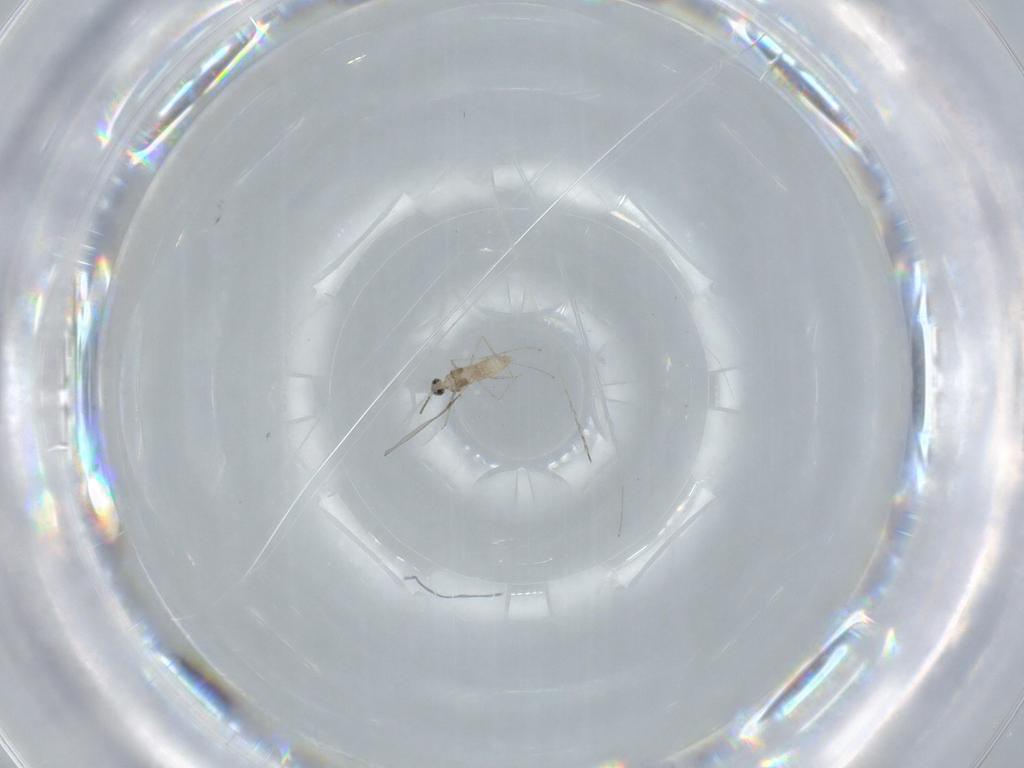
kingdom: Animalia
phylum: Arthropoda
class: Insecta
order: Diptera
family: Cecidomyiidae
